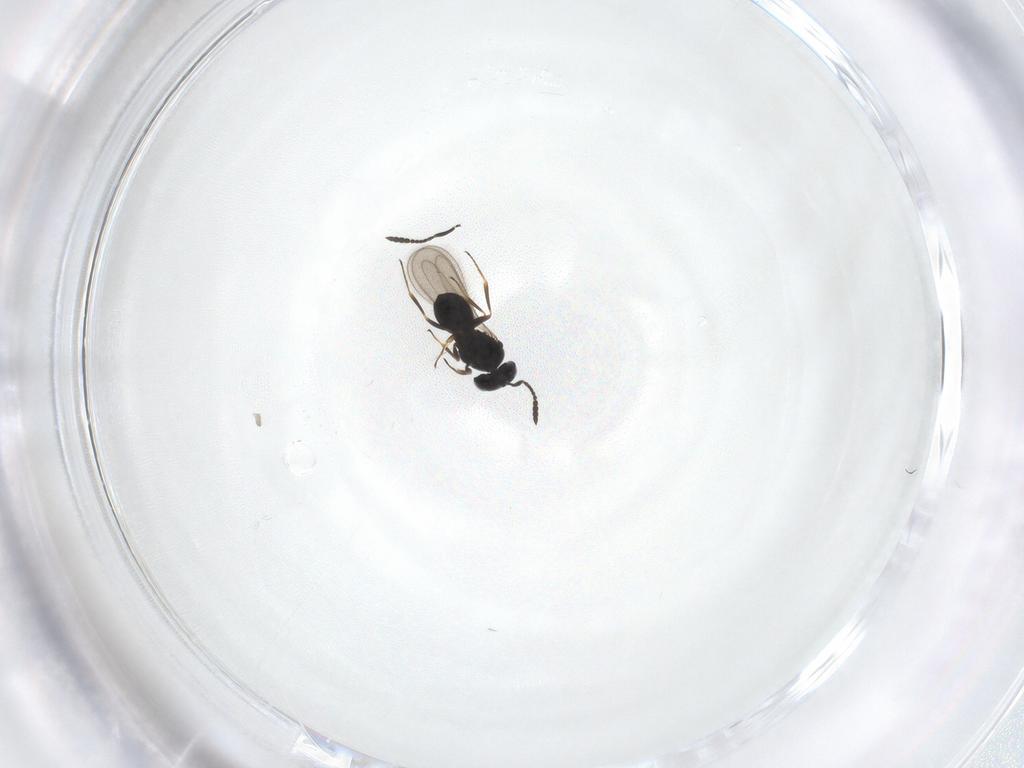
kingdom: Animalia
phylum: Arthropoda
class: Insecta
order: Hymenoptera
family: Scelionidae
